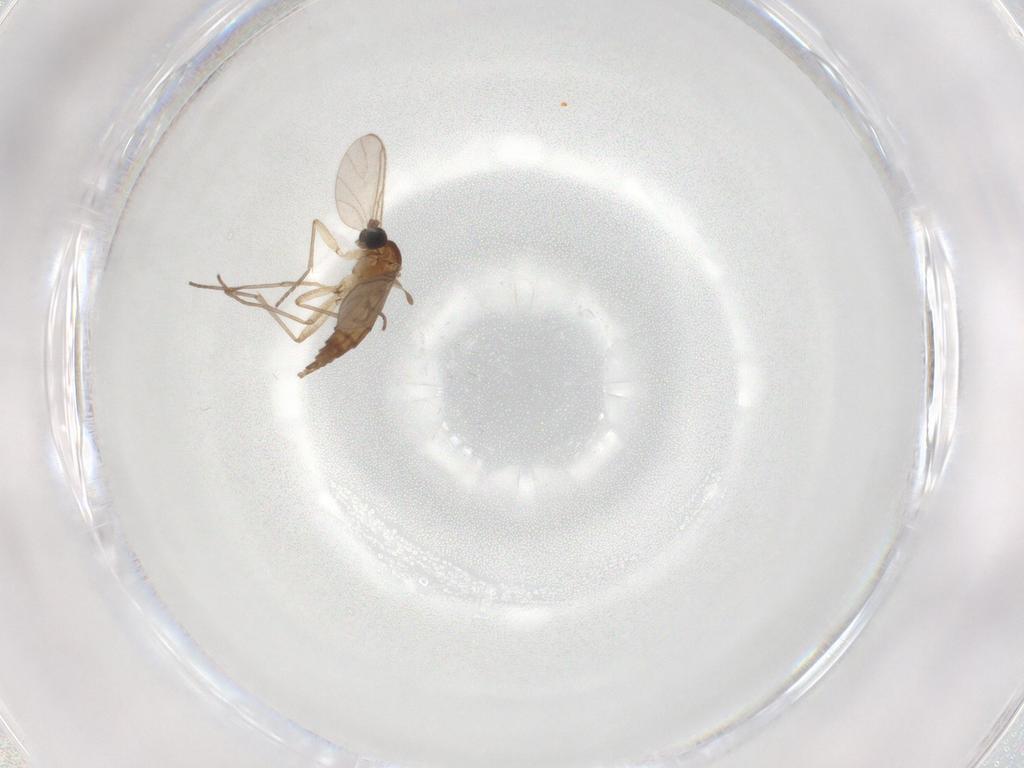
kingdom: Animalia
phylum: Arthropoda
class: Insecta
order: Diptera
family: Sciaridae
